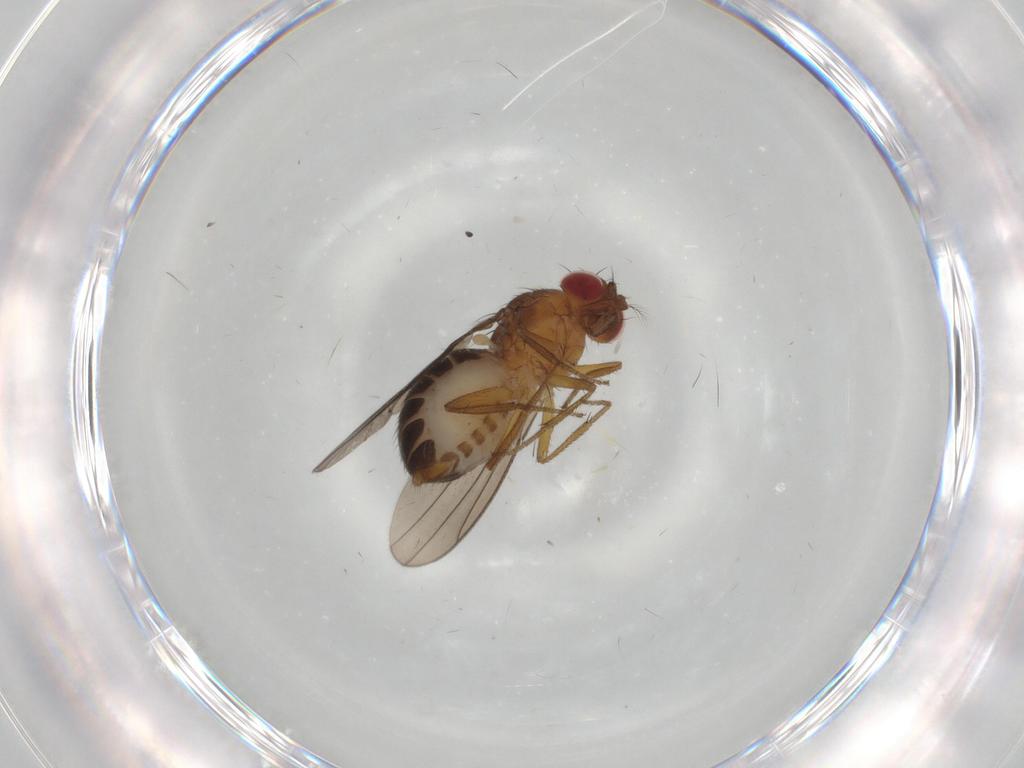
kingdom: Animalia
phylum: Arthropoda
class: Insecta
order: Diptera
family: Drosophilidae
